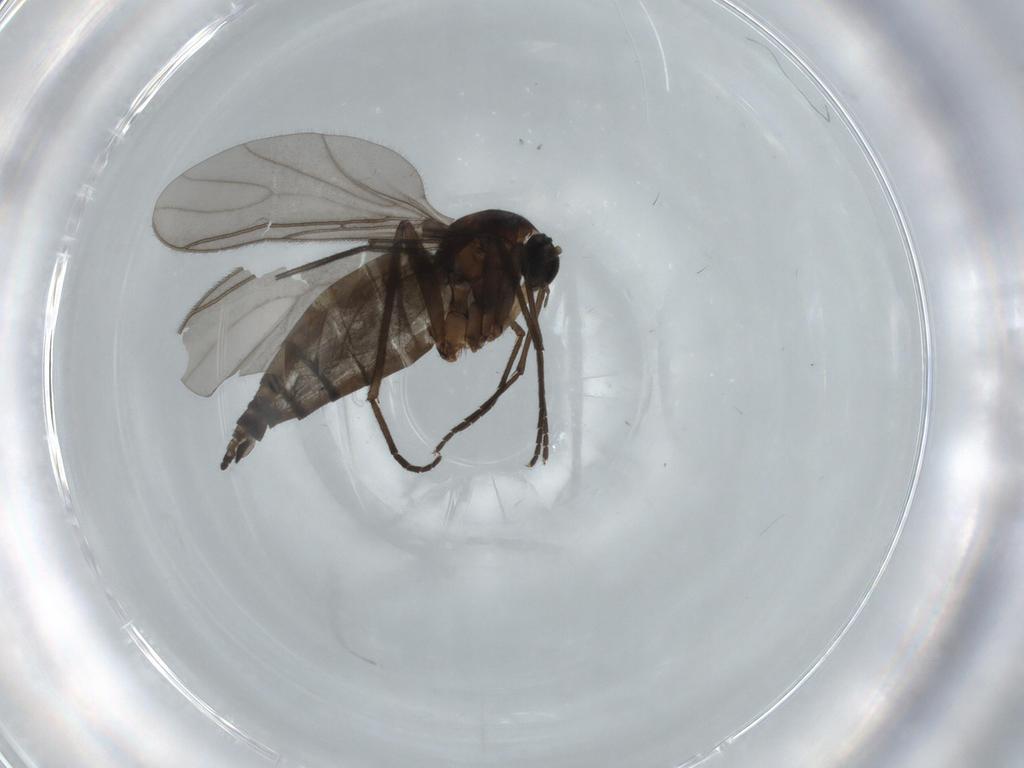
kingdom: Animalia
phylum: Arthropoda
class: Insecta
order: Diptera
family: Sciaridae
